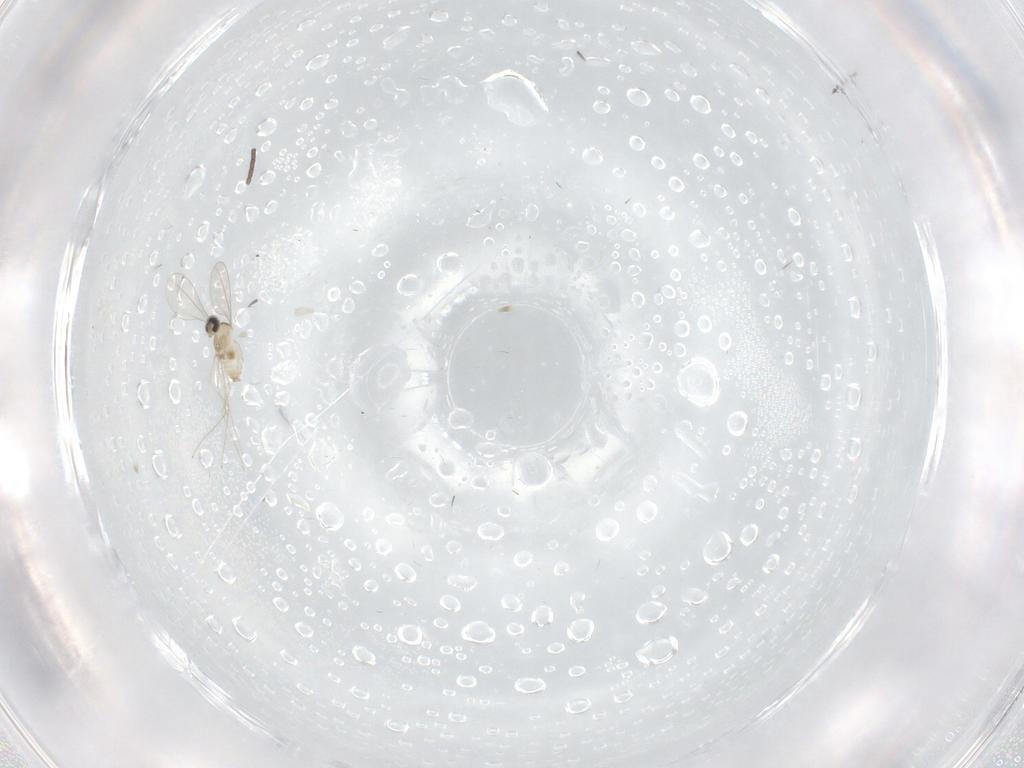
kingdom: Animalia
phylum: Arthropoda
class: Insecta
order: Diptera
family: Cecidomyiidae
